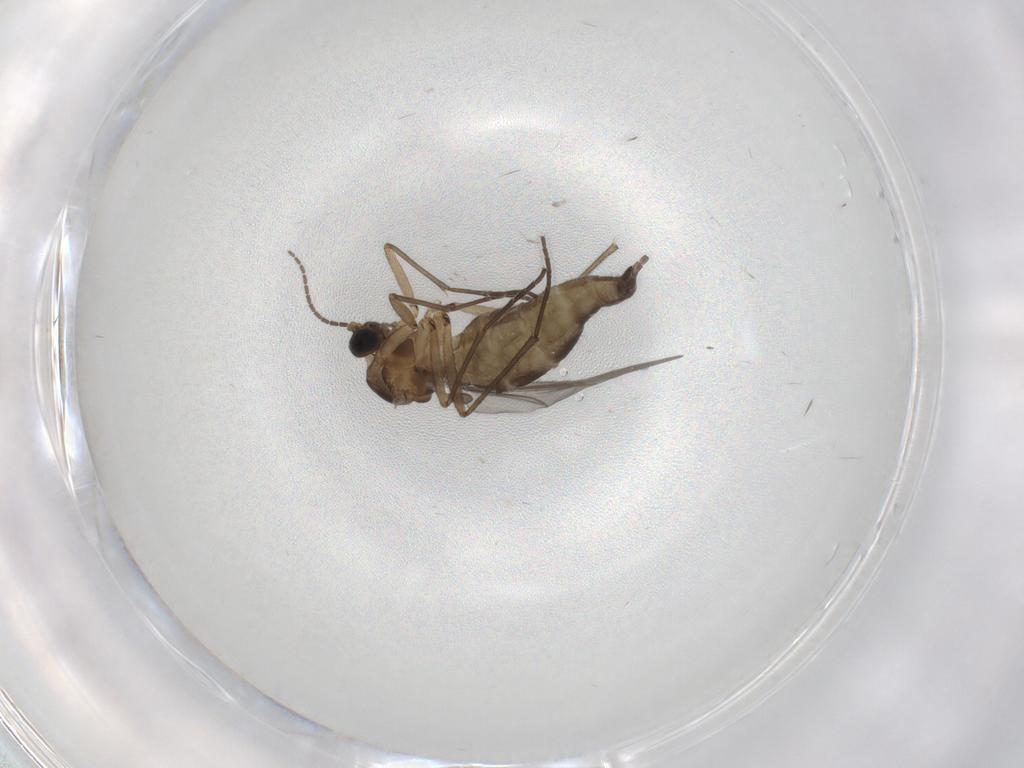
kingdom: Animalia
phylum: Arthropoda
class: Insecta
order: Diptera
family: Psychodidae
